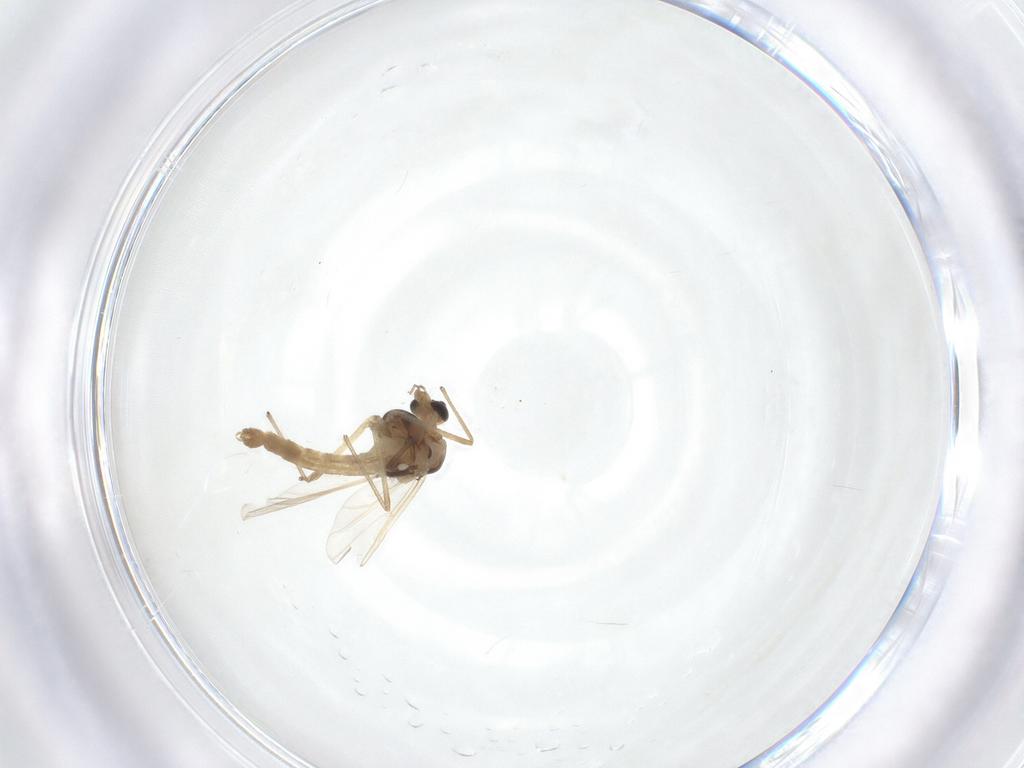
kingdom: Animalia
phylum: Arthropoda
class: Insecta
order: Diptera
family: Chironomidae
